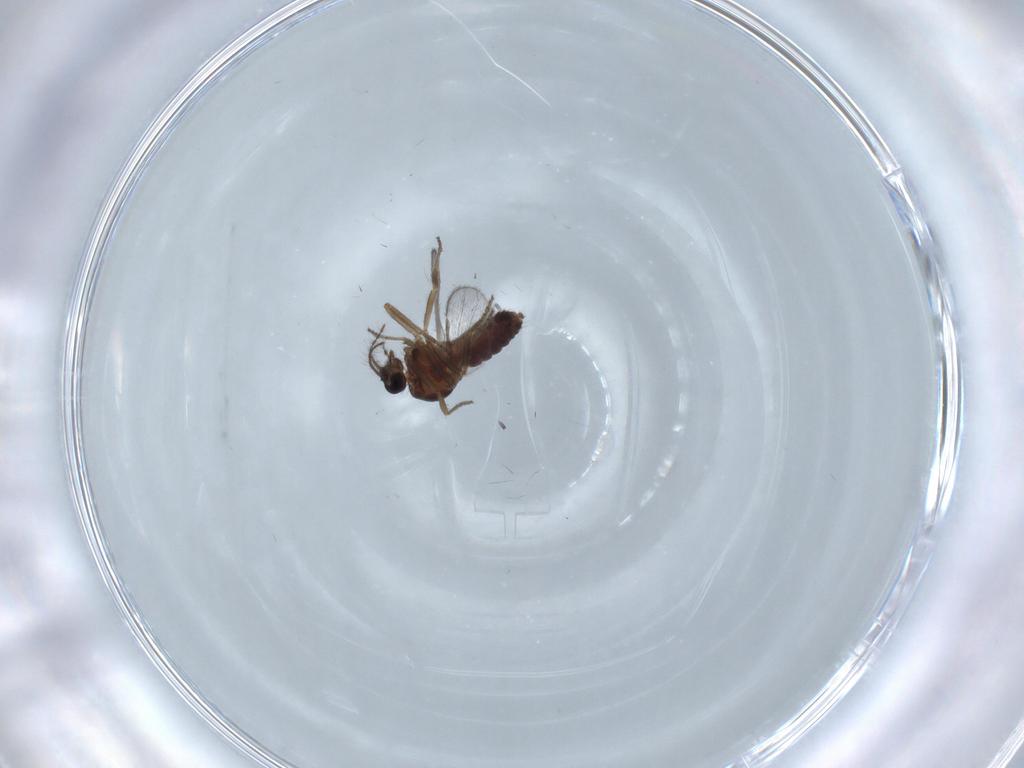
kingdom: Animalia
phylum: Arthropoda
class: Insecta
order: Diptera
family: Ceratopogonidae
